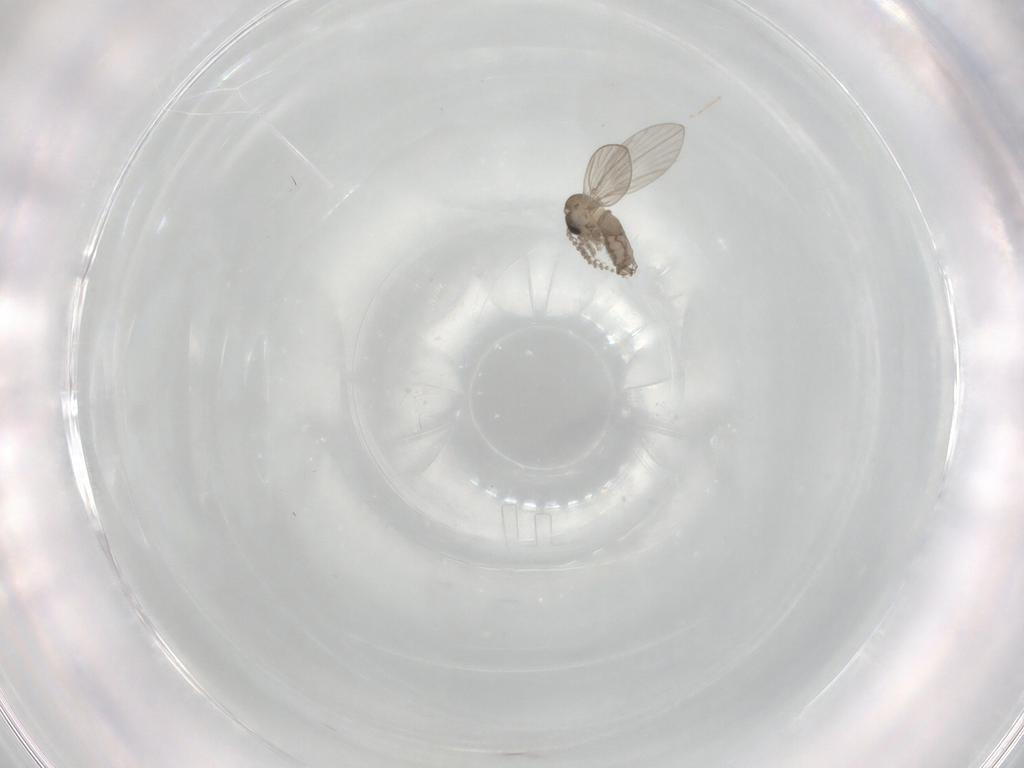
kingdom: Animalia
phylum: Arthropoda
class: Insecta
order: Diptera
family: Psychodidae
